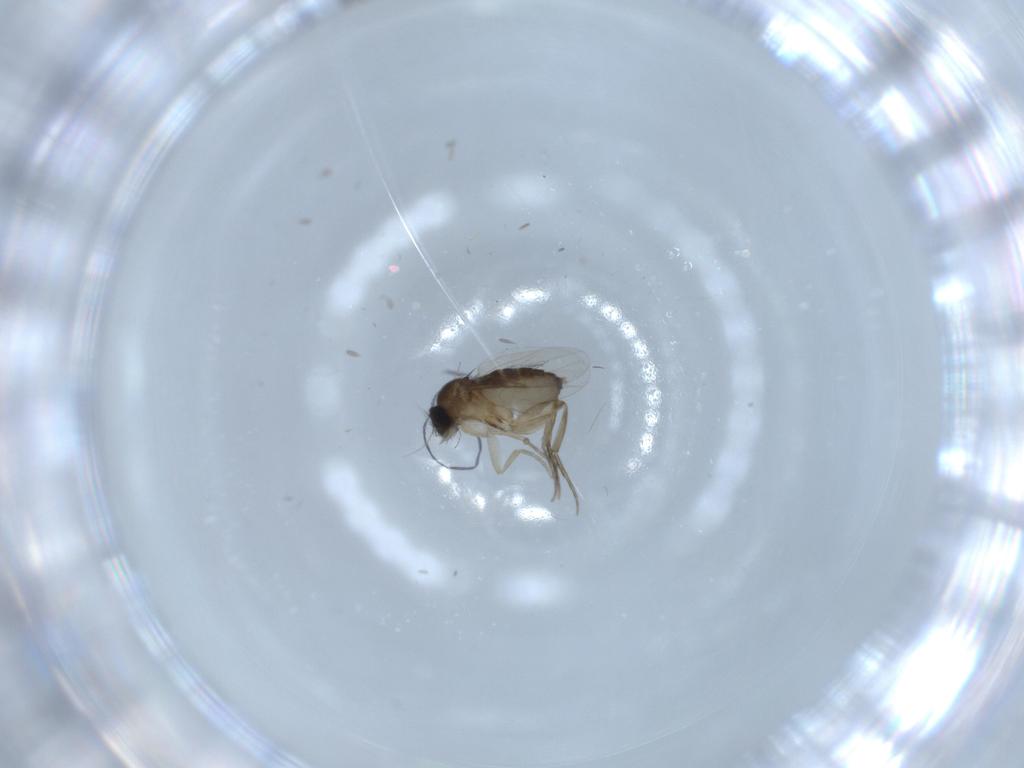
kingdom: Animalia
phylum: Arthropoda
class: Insecta
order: Diptera
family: Phoridae
